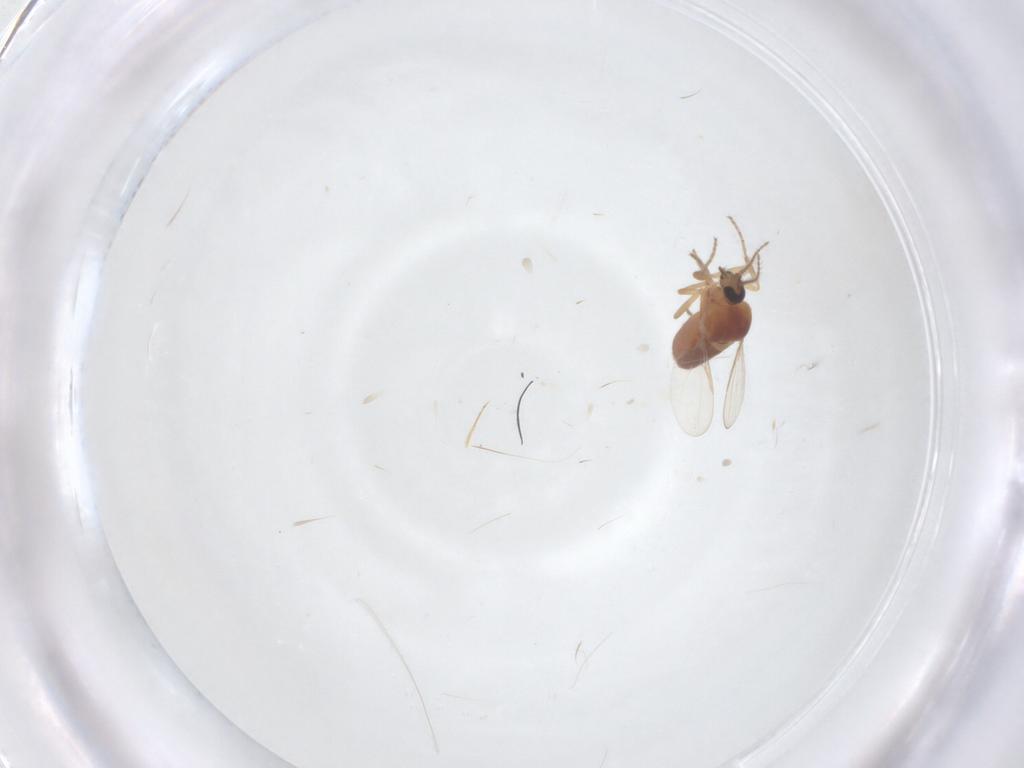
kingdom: Animalia
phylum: Arthropoda
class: Insecta
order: Diptera
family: Ceratopogonidae
